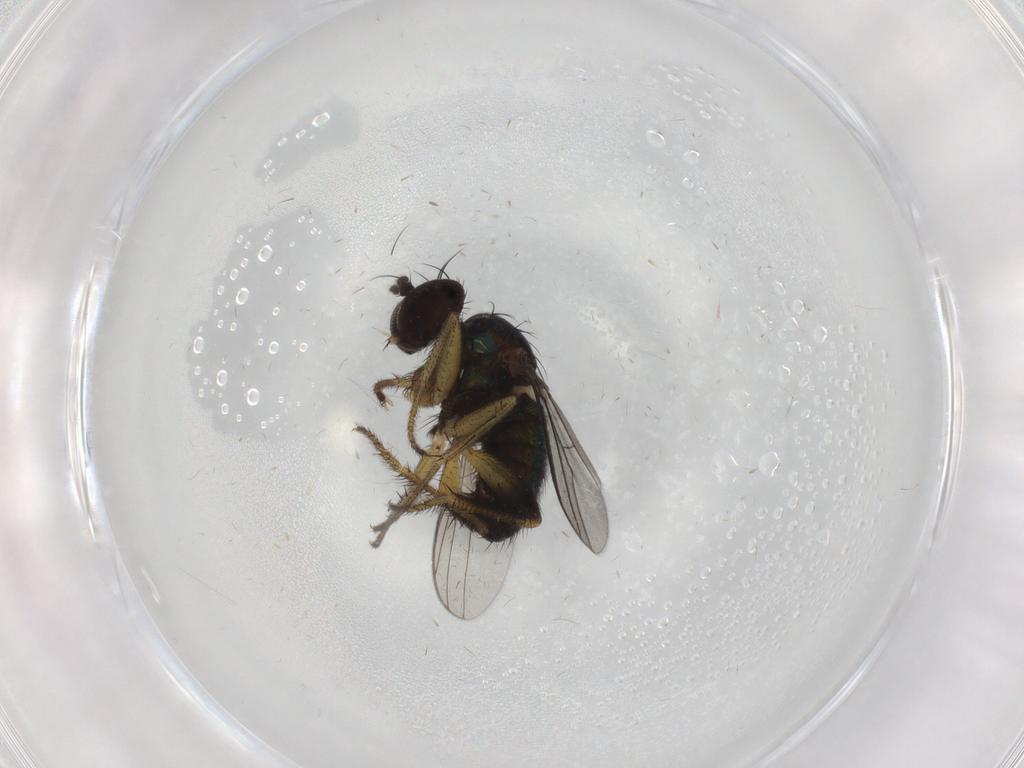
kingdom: Animalia
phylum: Arthropoda
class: Insecta
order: Diptera
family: Dolichopodidae
